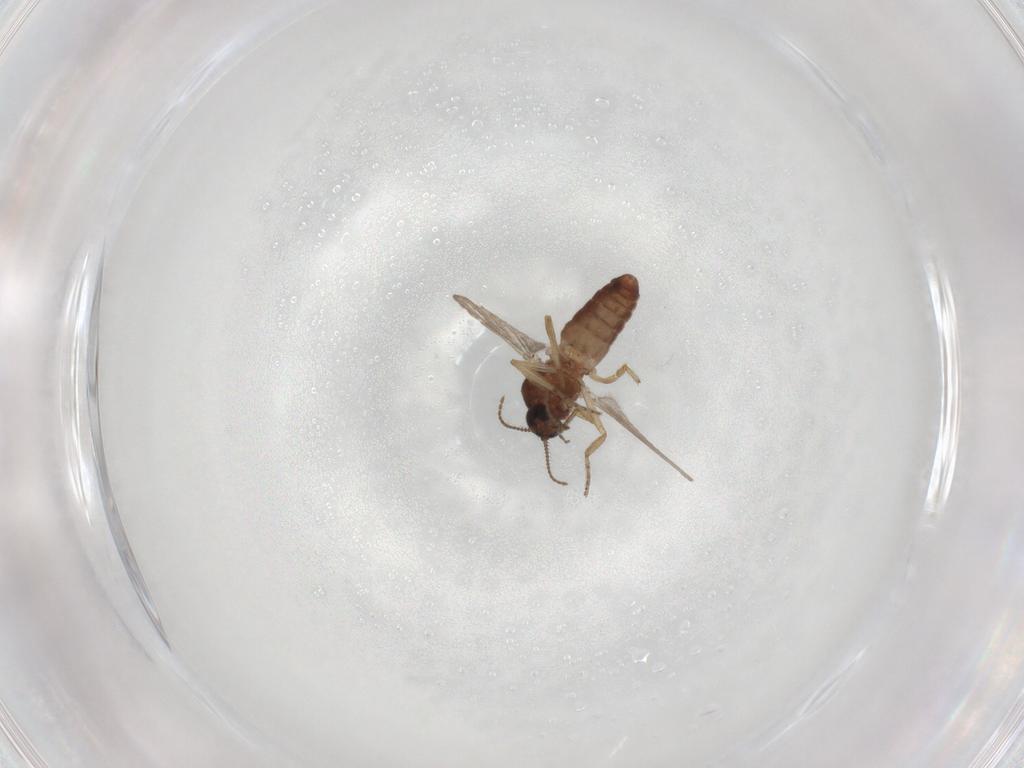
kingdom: Animalia
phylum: Arthropoda
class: Insecta
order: Diptera
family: Ceratopogonidae
